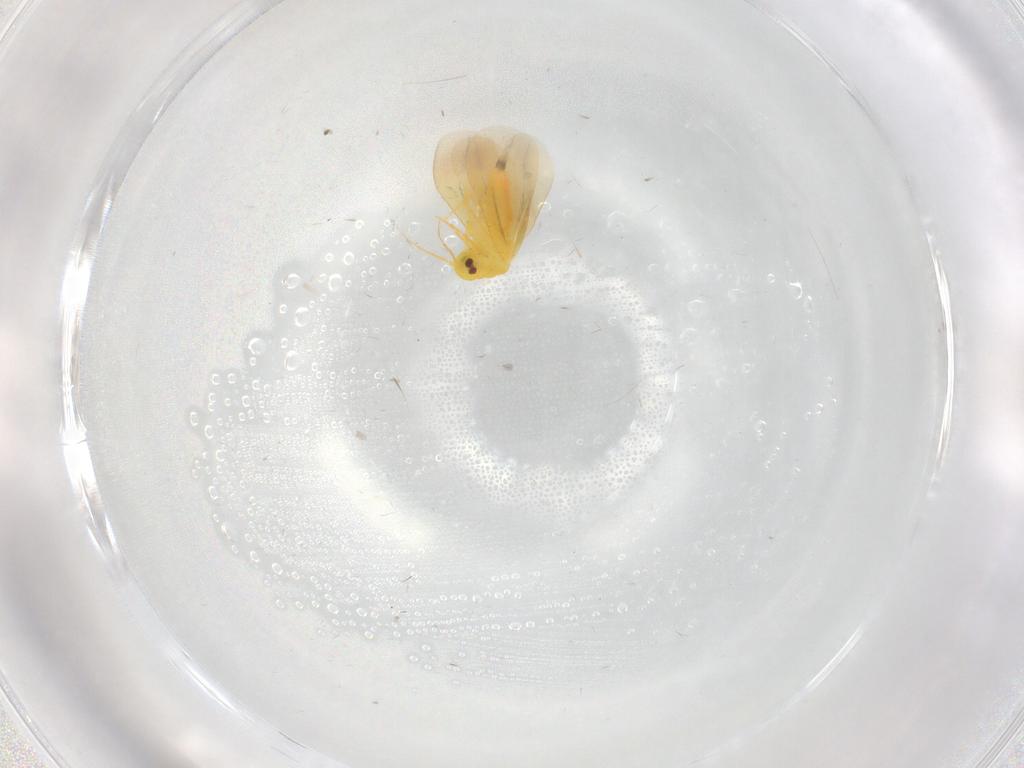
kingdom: Animalia
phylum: Arthropoda
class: Insecta
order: Hemiptera
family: Aleyrodidae
